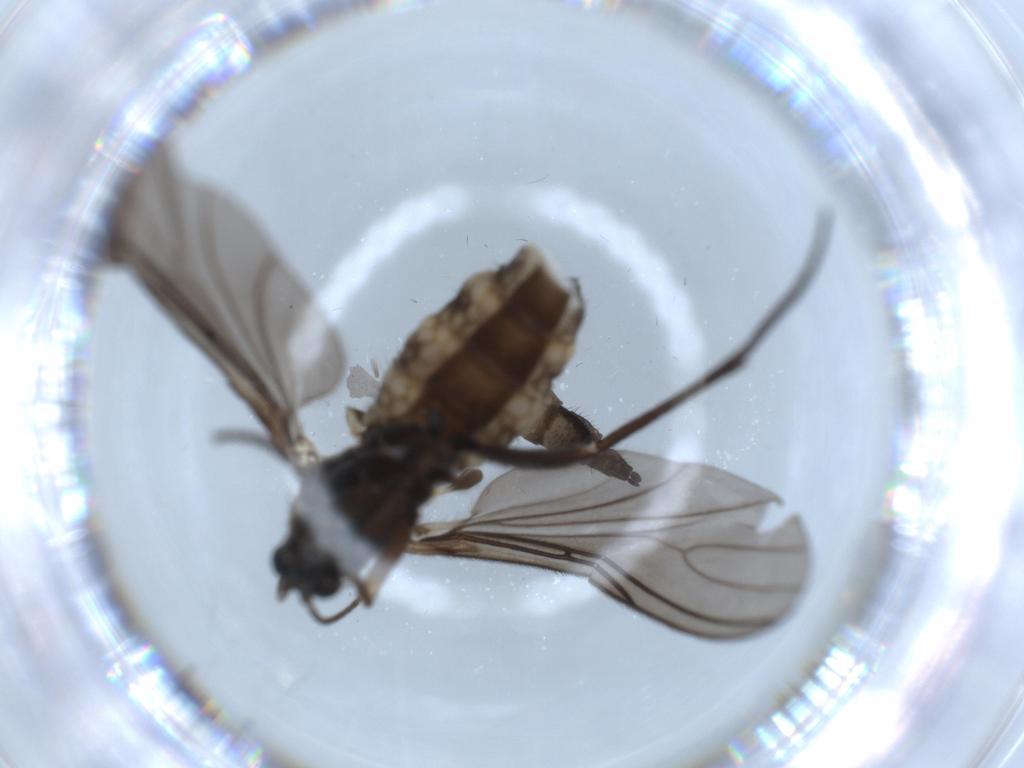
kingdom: Animalia
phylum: Arthropoda
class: Insecta
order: Diptera
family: Sciaridae
